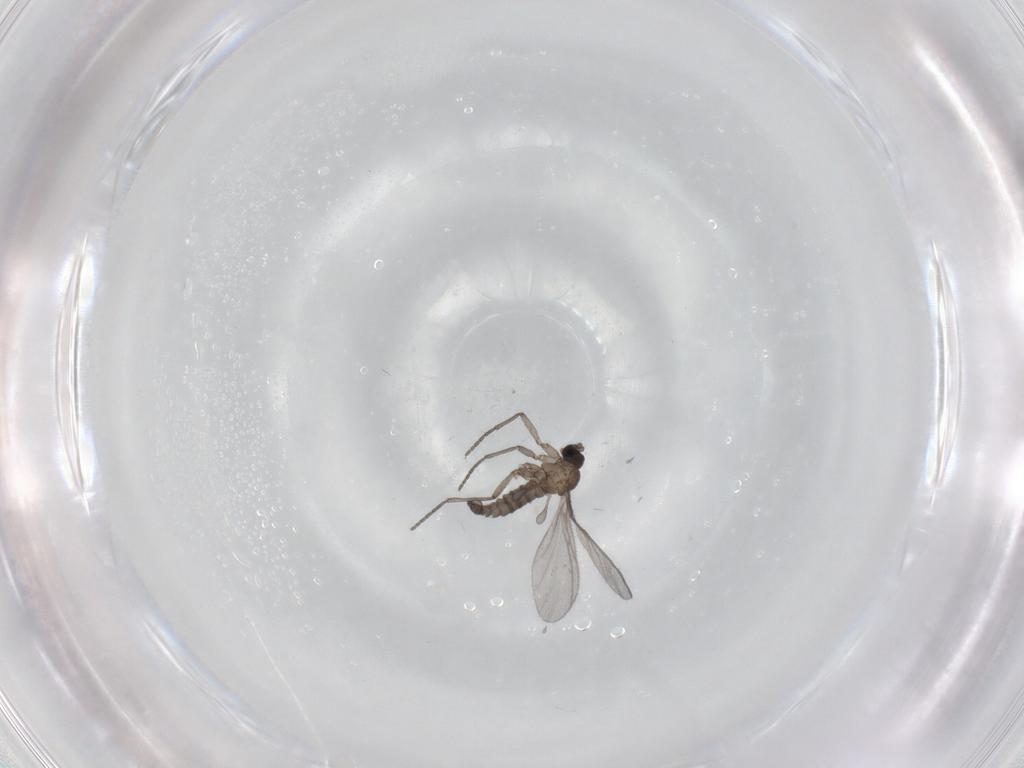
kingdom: Animalia
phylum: Arthropoda
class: Insecta
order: Diptera
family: Sciaridae
